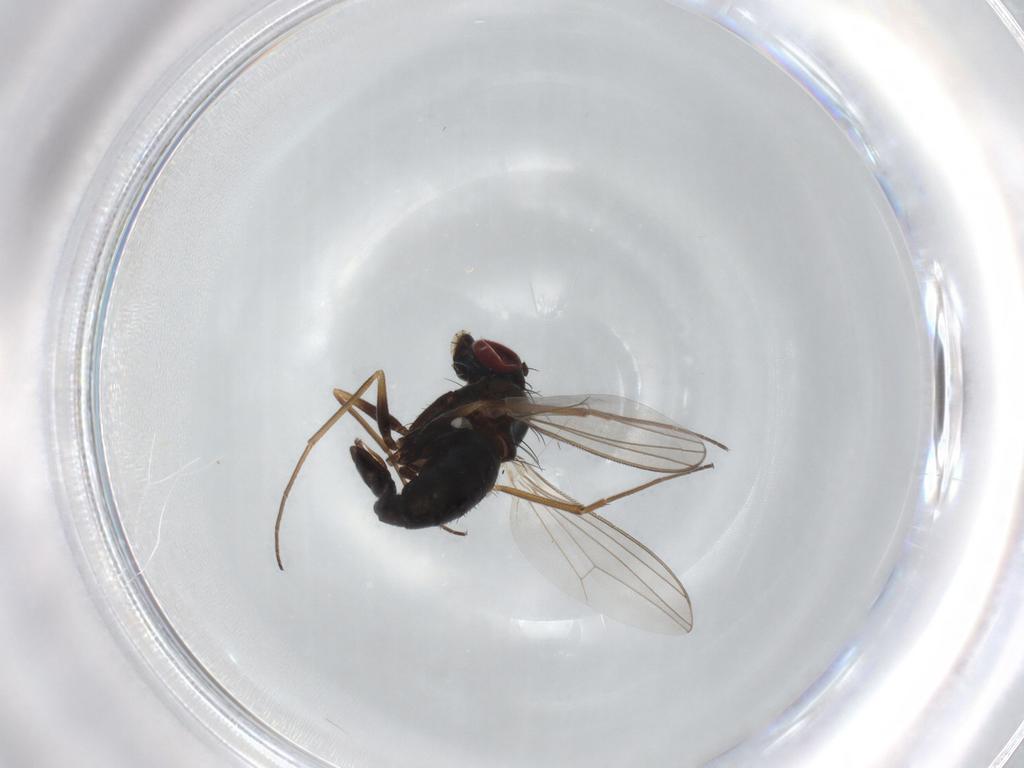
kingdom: Animalia
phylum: Arthropoda
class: Insecta
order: Diptera
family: Dolichopodidae
